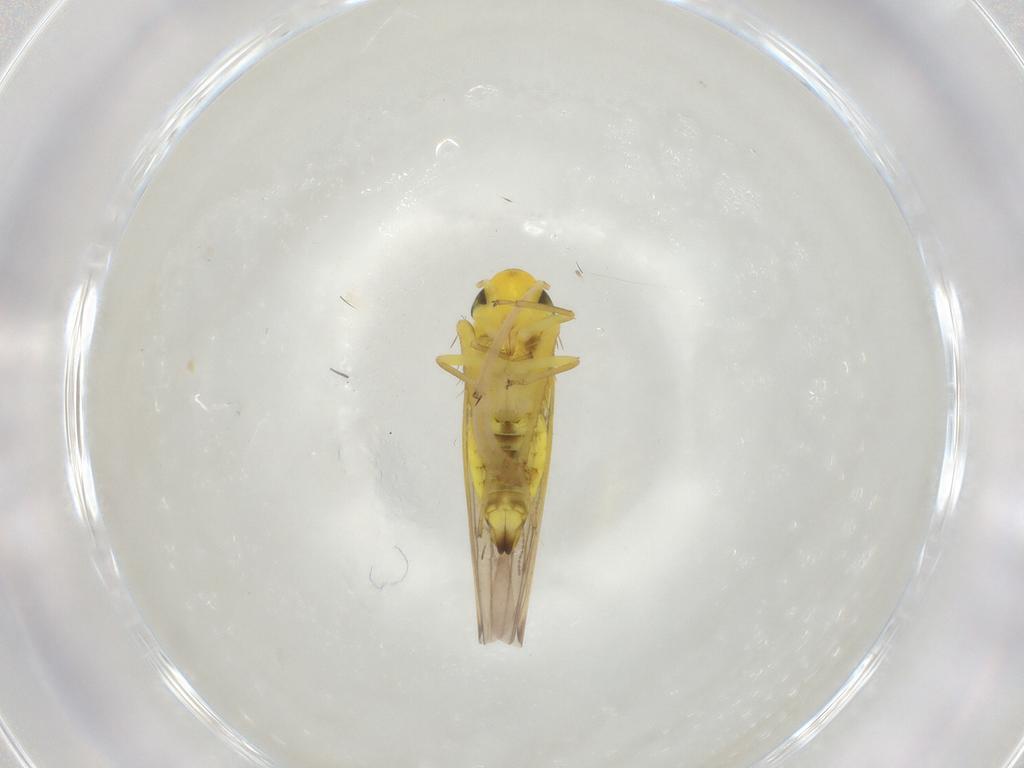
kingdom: Animalia
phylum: Arthropoda
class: Insecta
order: Hemiptera
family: Cicadellidae
